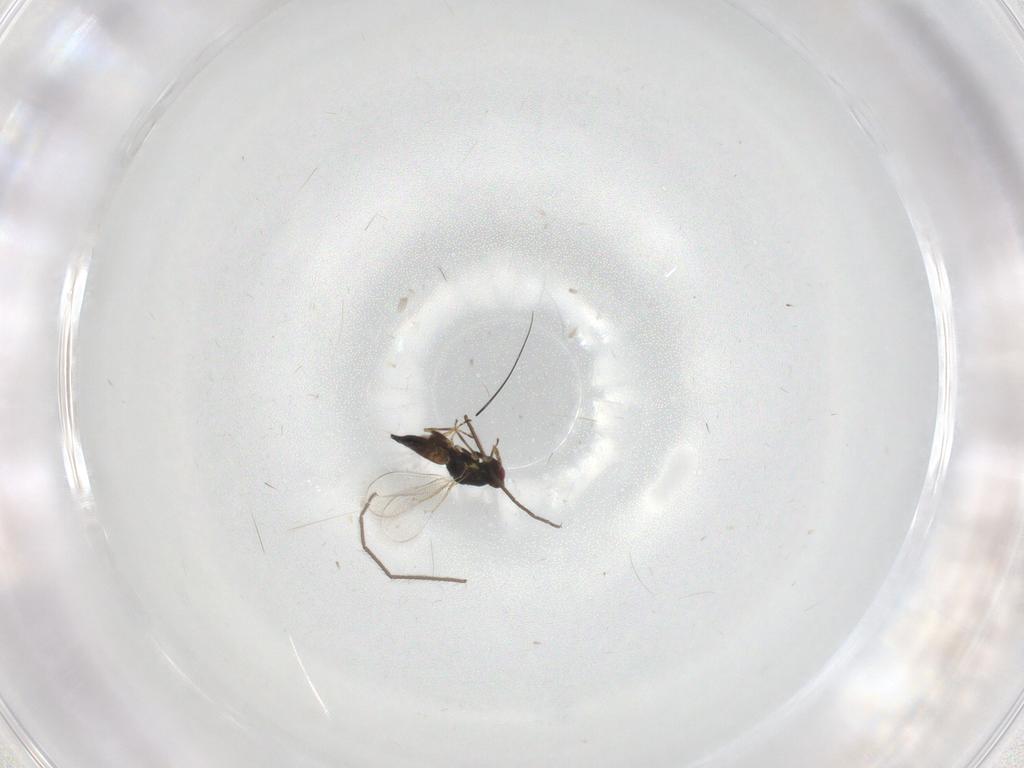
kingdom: Animalia
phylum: Arthropoda
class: Insecta
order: Hymenoptera
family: Eulophidae
